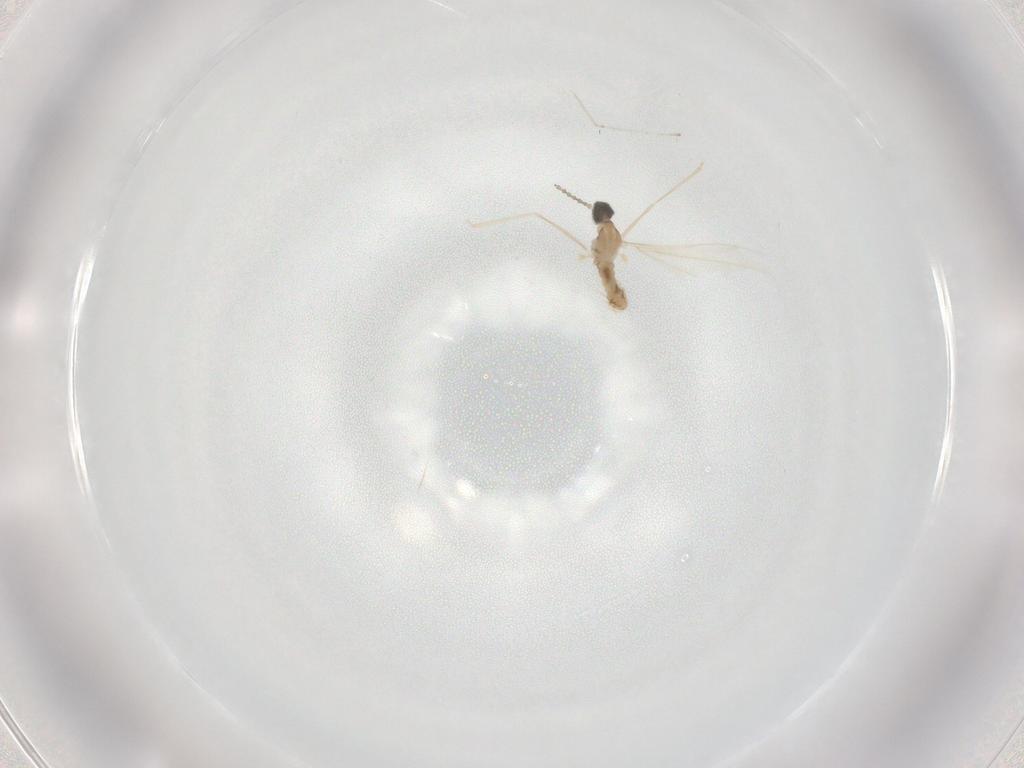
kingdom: Animalia
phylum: Arthropoda
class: Insecta
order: Diptera
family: Cecidomyiidae
